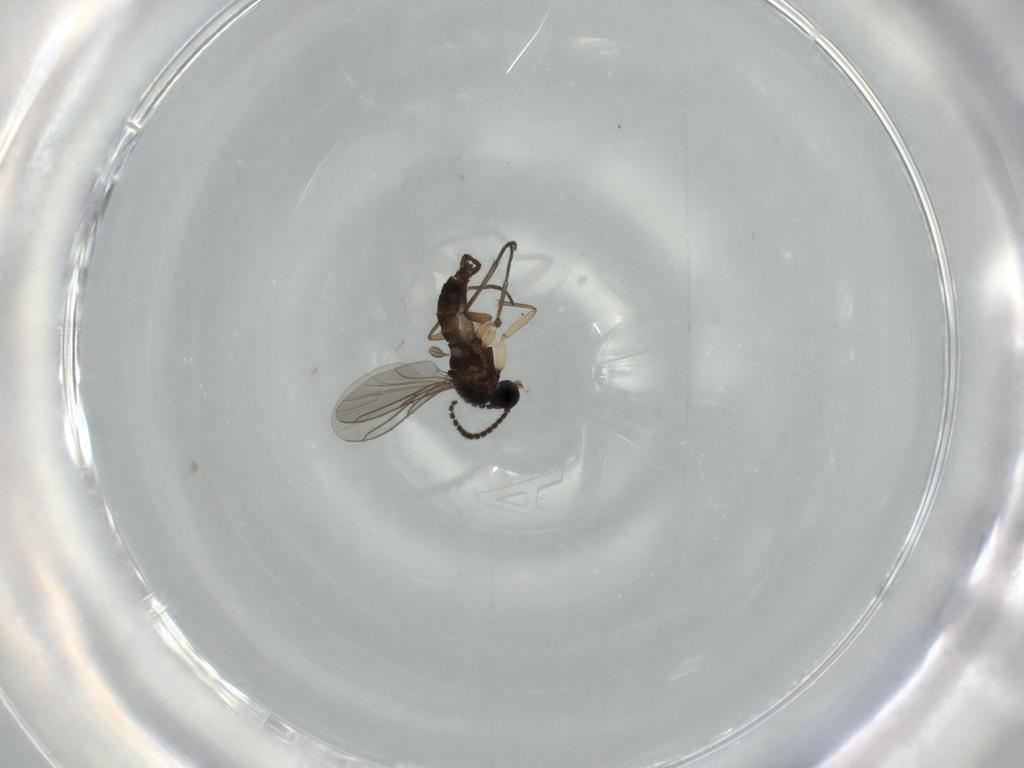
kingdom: Animalia
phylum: Arthropoda
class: Insecta
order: Diptera
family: Sciaridae
